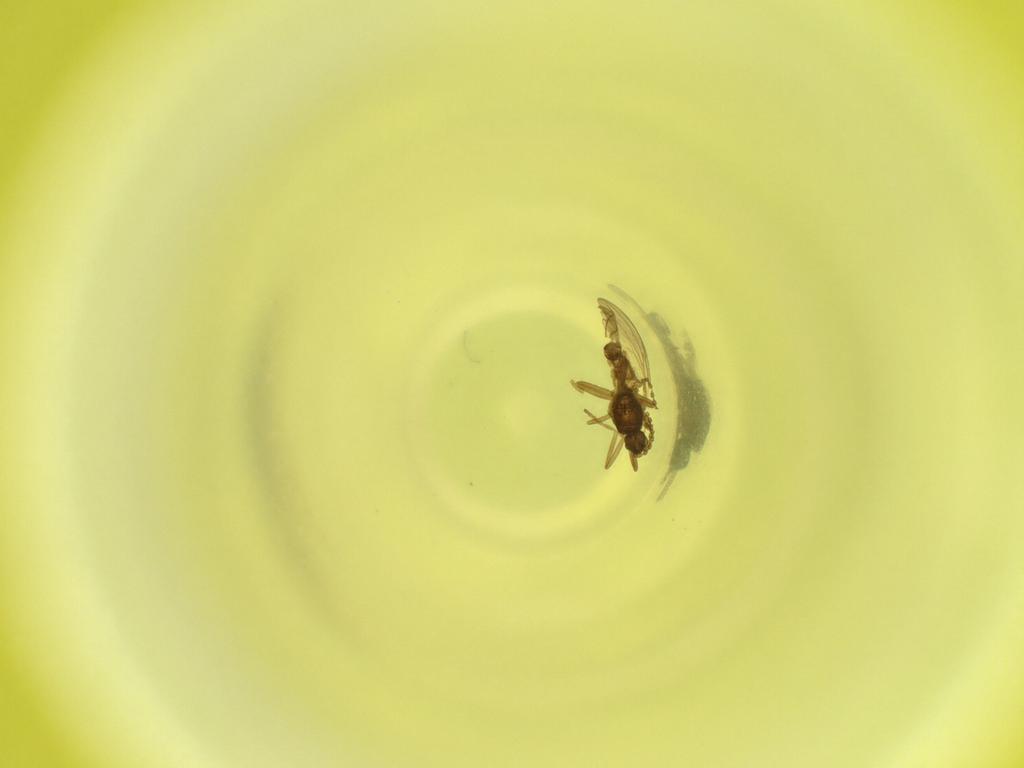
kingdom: Animalia
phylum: Arthropoda
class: Insecta
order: Diptera
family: Cecidomyiidae
